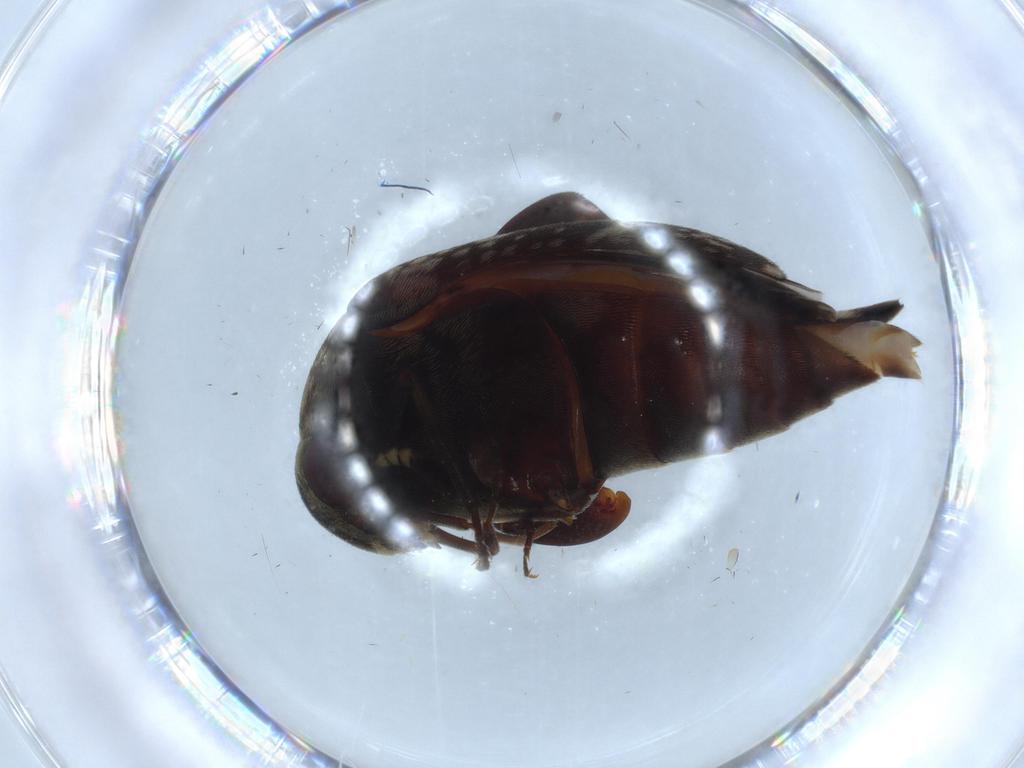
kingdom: Animalia
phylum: Arthropoda
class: Insecta
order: Coleoptera
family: Chrysomelidae
